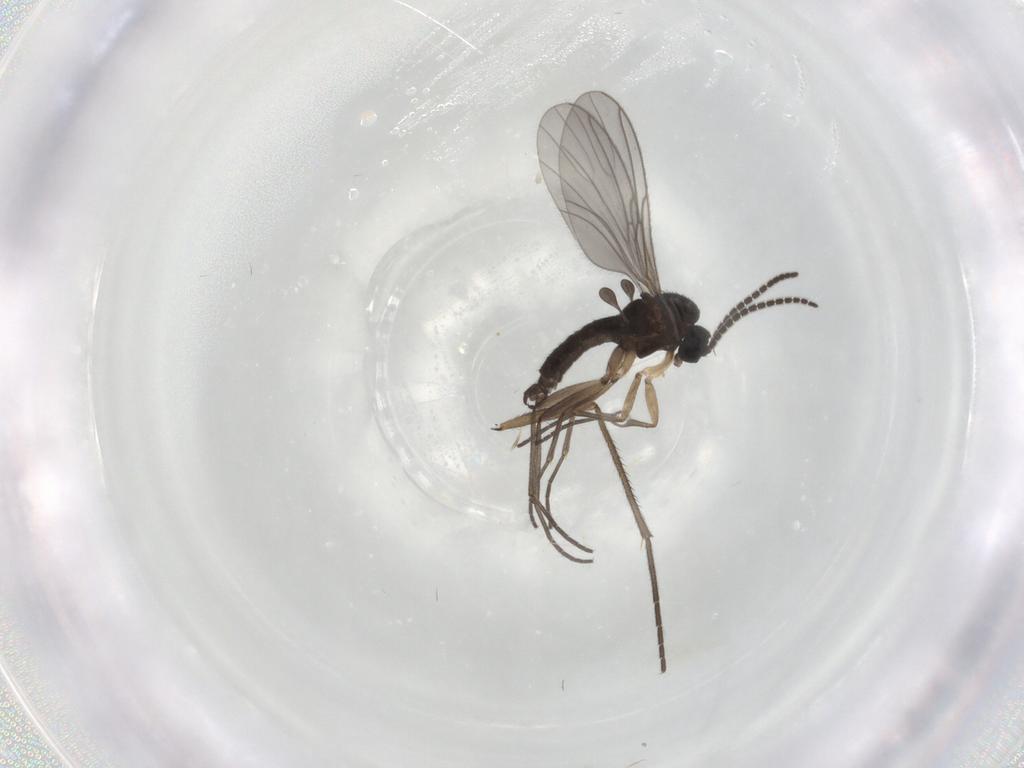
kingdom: Animalia
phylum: Arthropoda
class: Insecta
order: Diptera
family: Sciaridae
